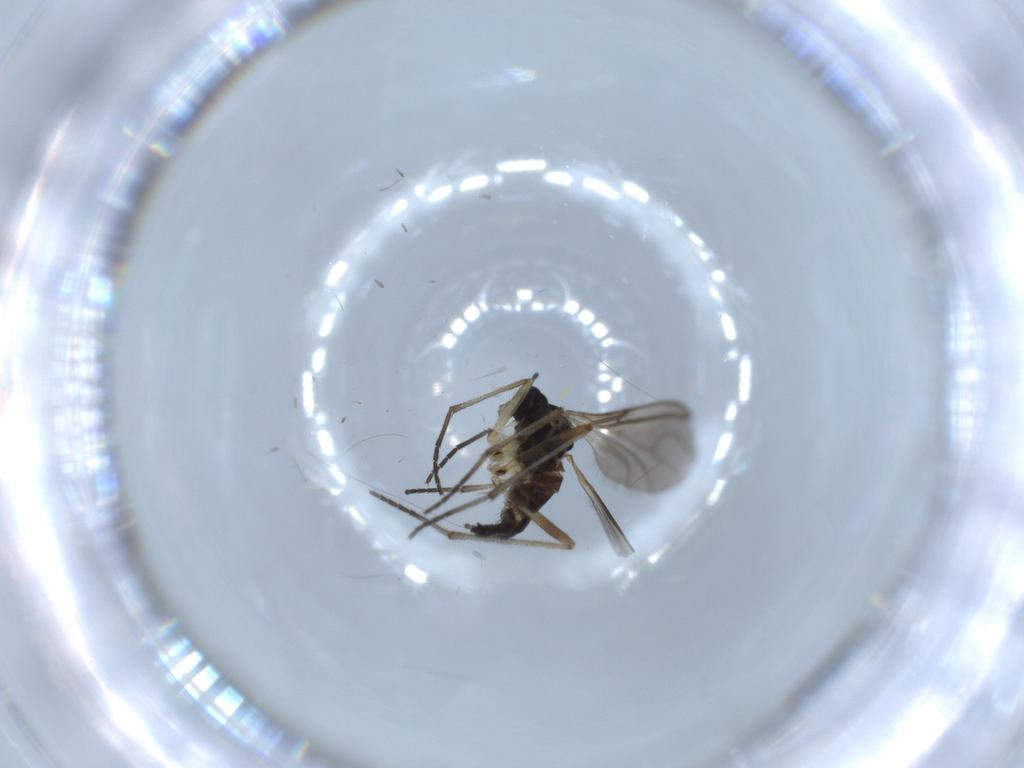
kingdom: Animalia
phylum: Arthropoda
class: Insecta
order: Diptera
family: Sciaridae
